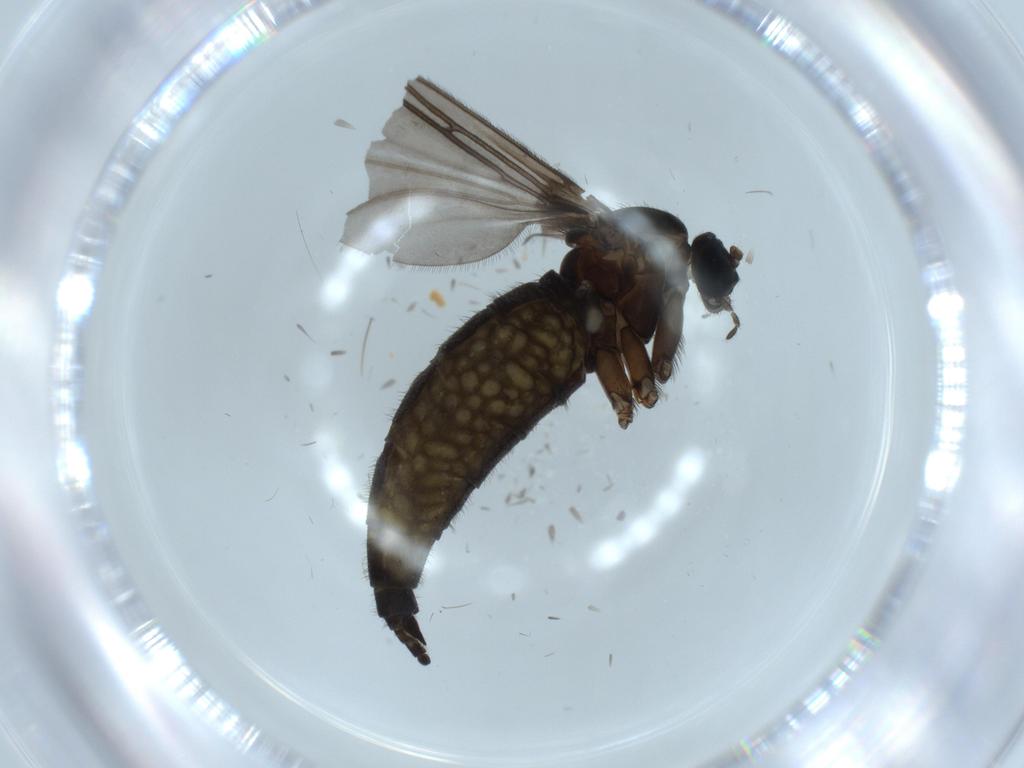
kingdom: Animalia
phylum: Arthropoda
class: Insecta
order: Diptera
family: Sciaridae
